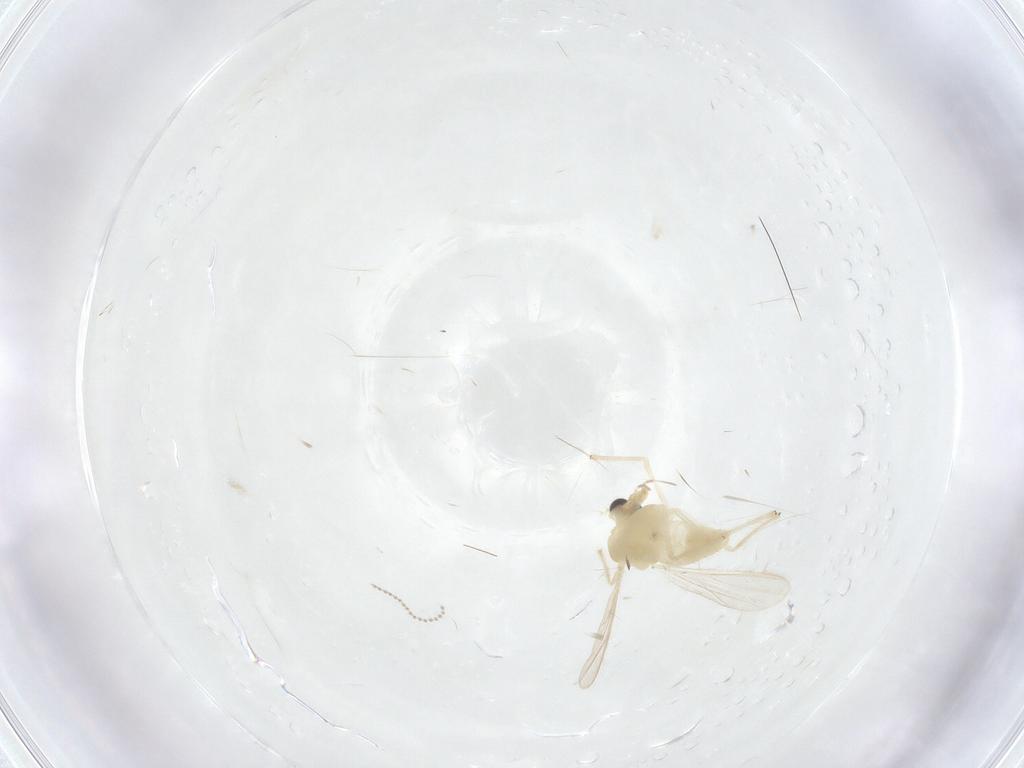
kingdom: Animalia
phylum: Arthropoda
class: Insecta
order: Diptera
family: Chironomidae
